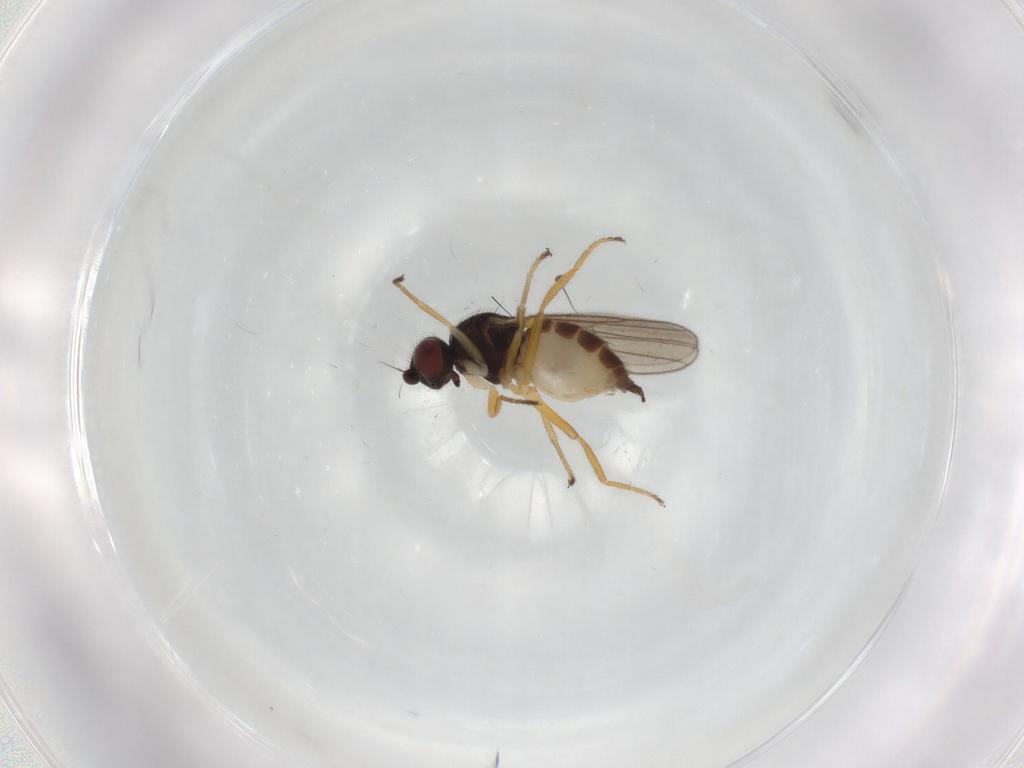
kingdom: Animalia
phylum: Arthropoda
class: Insecta
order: Diptera
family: Chloropidae
